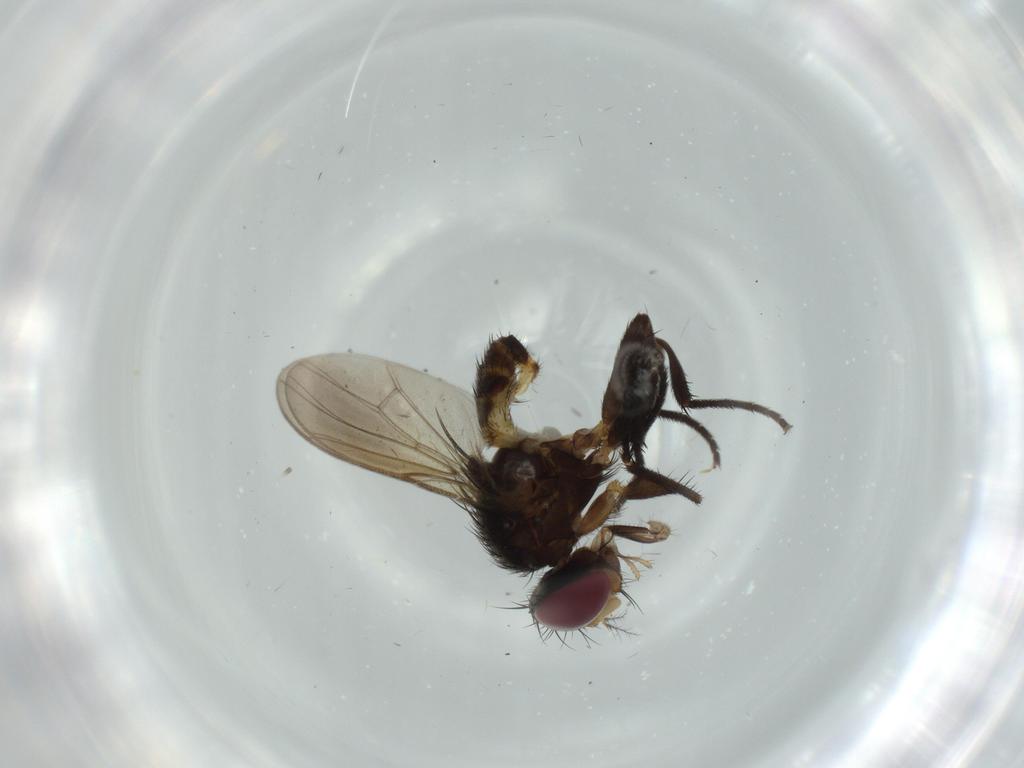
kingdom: Animalia
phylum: Arthropoda
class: Insecta
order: Diptera
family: Anthomyiidae
